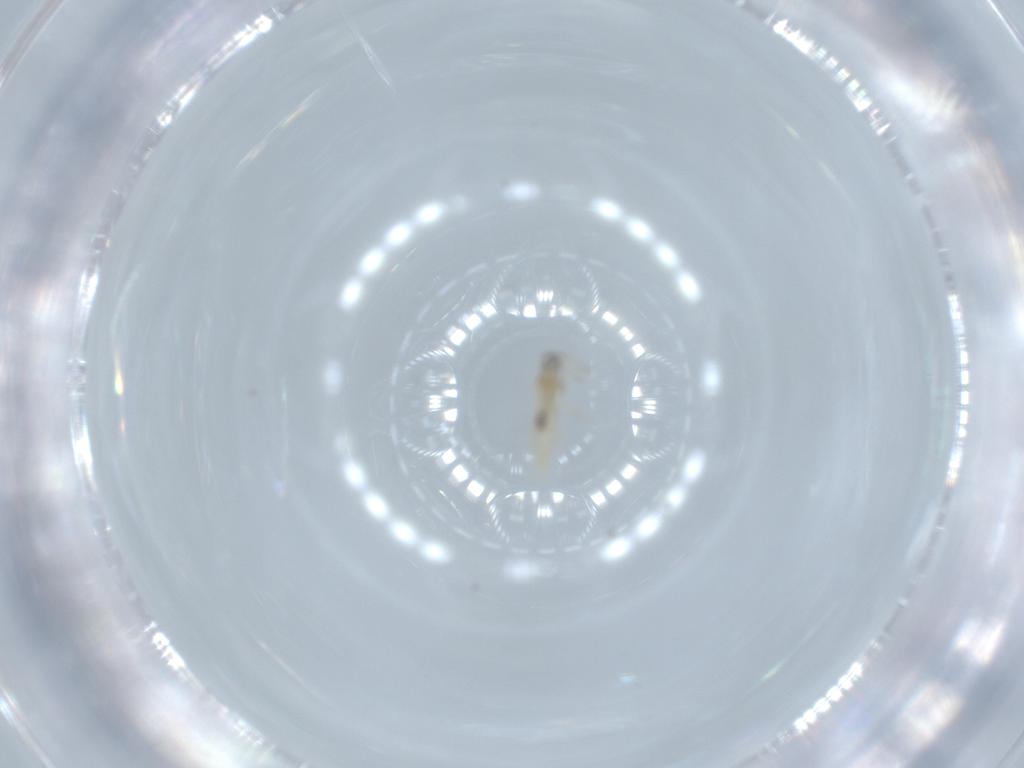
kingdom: Animalia
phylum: Arthropoda
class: Insecta
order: Diptera
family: Cecidomyiidae
